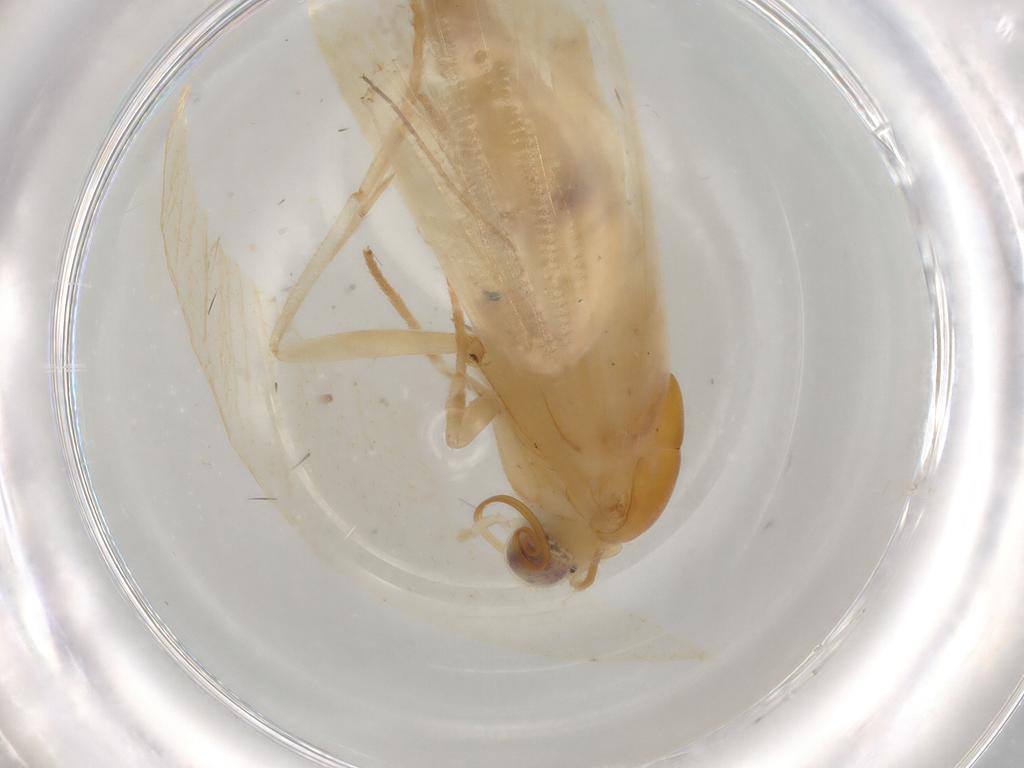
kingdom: Animalia
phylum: Arthropoda
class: Insecta
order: Lepidoptera
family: Noctuidae
